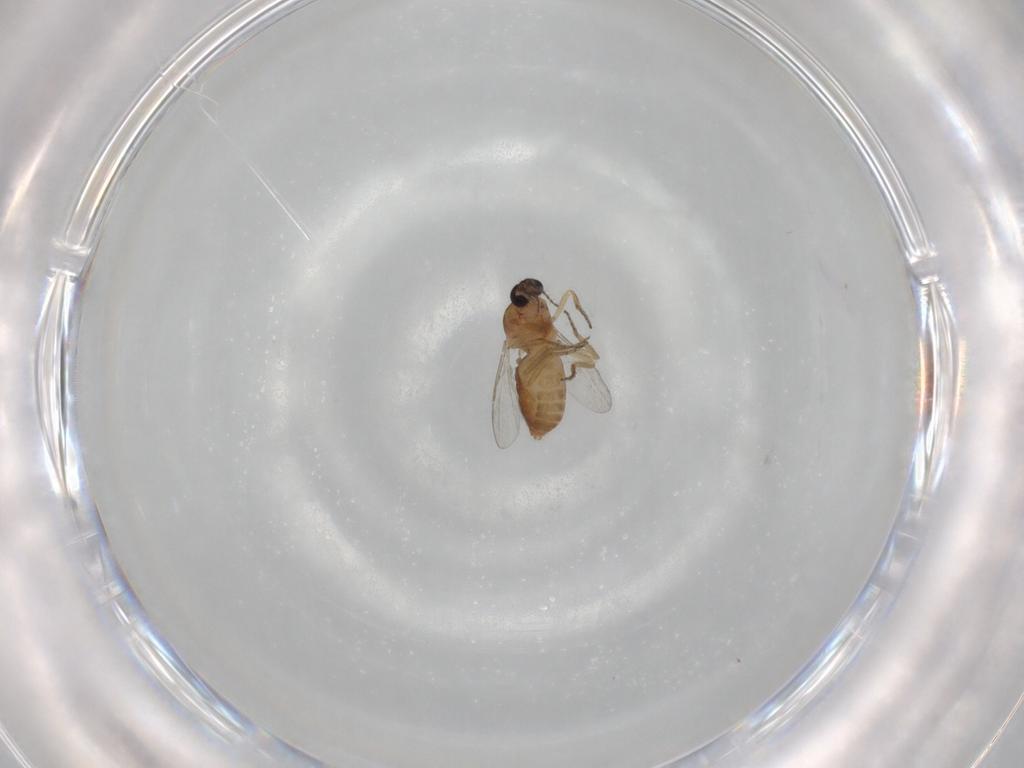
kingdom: Animalia
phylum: Arthropoda
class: Insecta
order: Diptera
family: Ceratopogonidae
